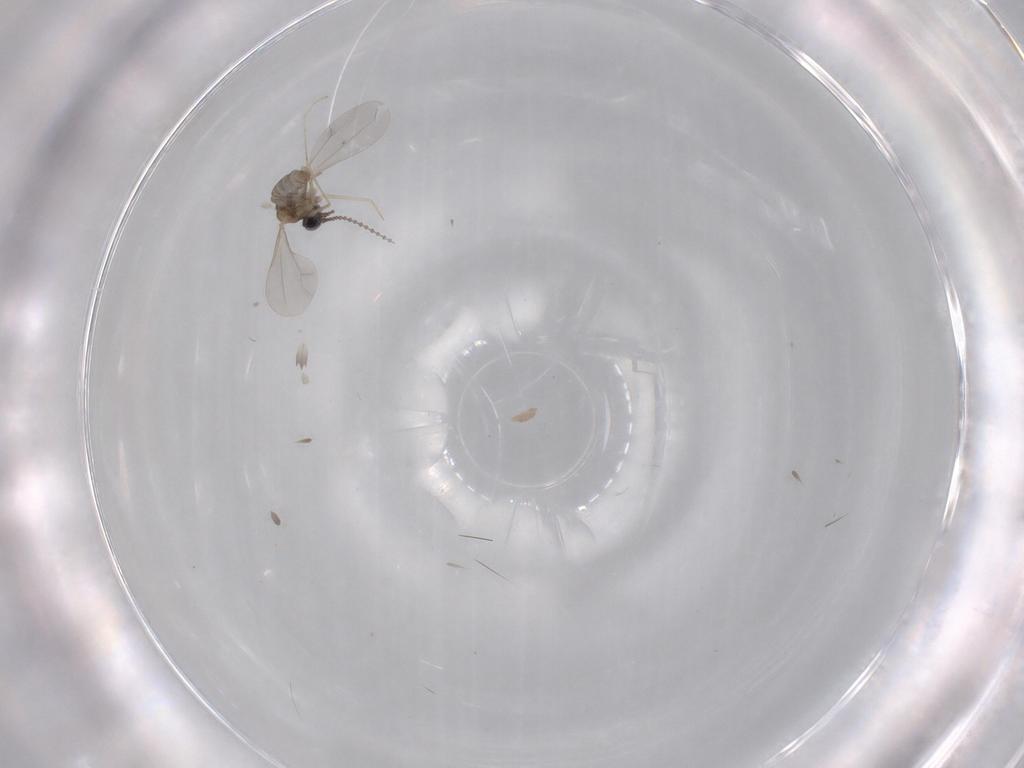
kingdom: Animalia
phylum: Arthropoda
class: Insecta
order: Diptera
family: Cecidomyiidae
